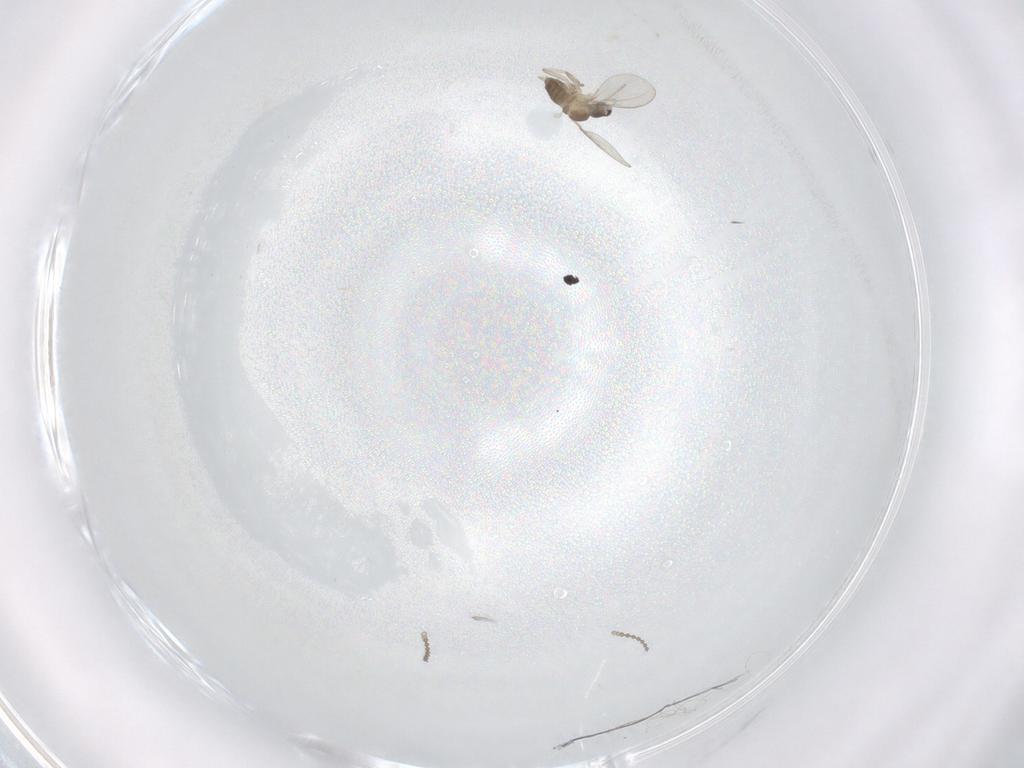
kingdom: Animalia
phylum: Arthropoda
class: Insecta
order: Diptera
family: Cecidomyiidae
